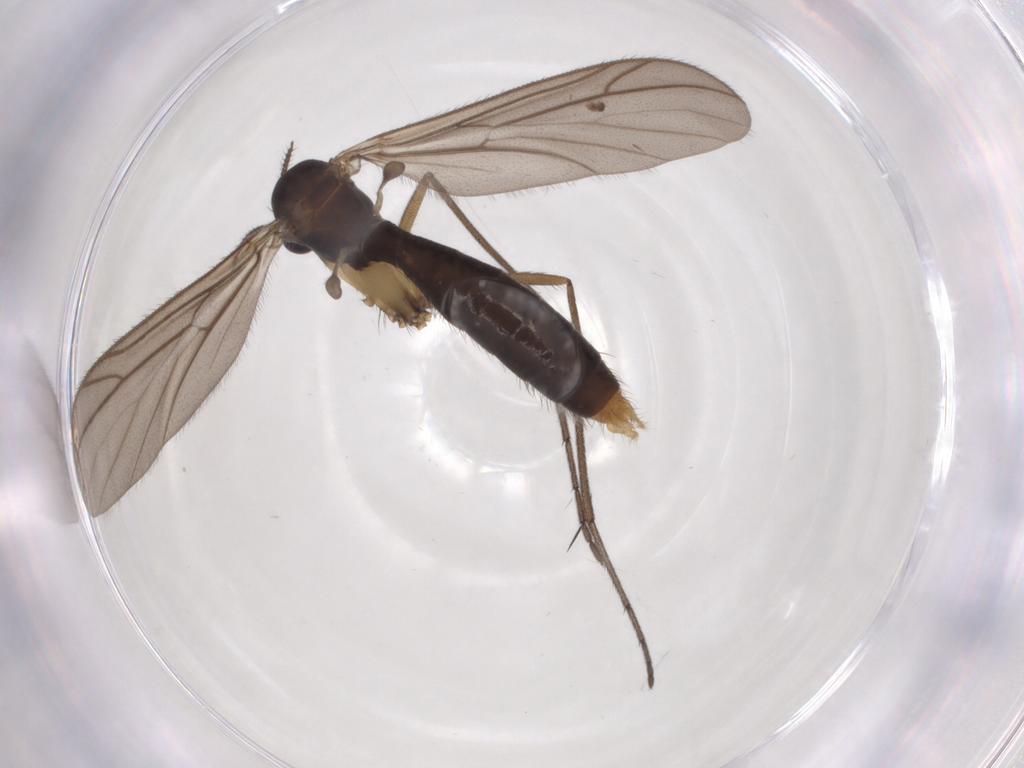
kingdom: Animalia
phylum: Arthropoda
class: Insecta
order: Diptera
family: Ditomyiidae
